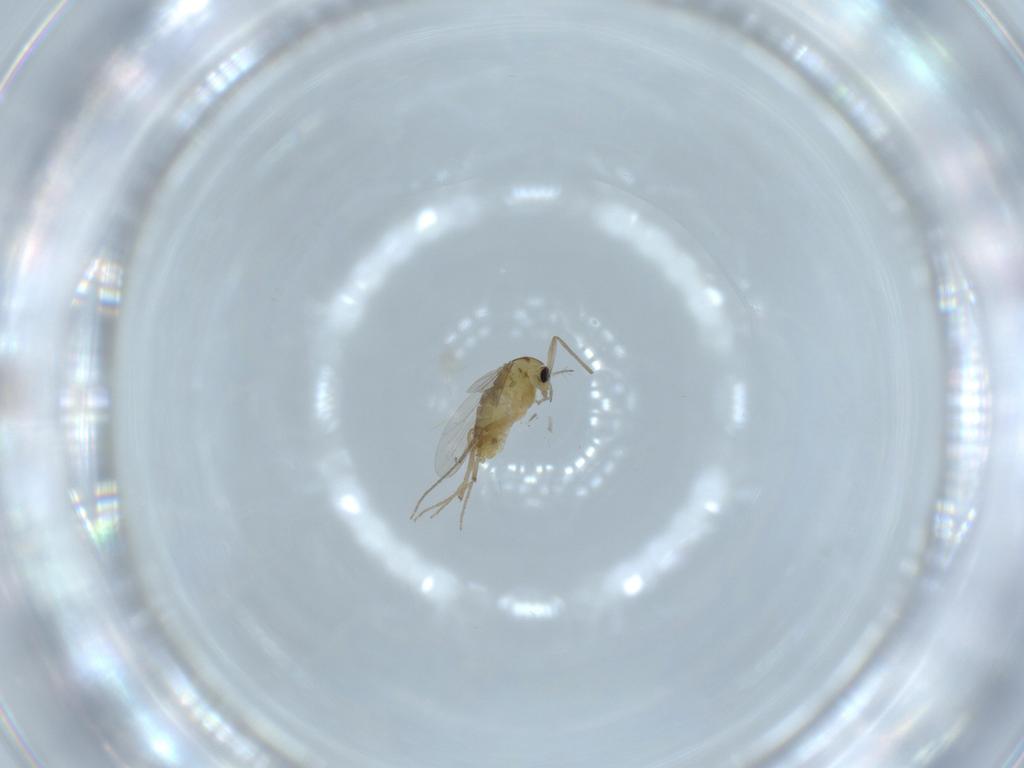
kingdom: Animalia
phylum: Arthropoda
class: Insecta
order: Diptera
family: Chironomidae
